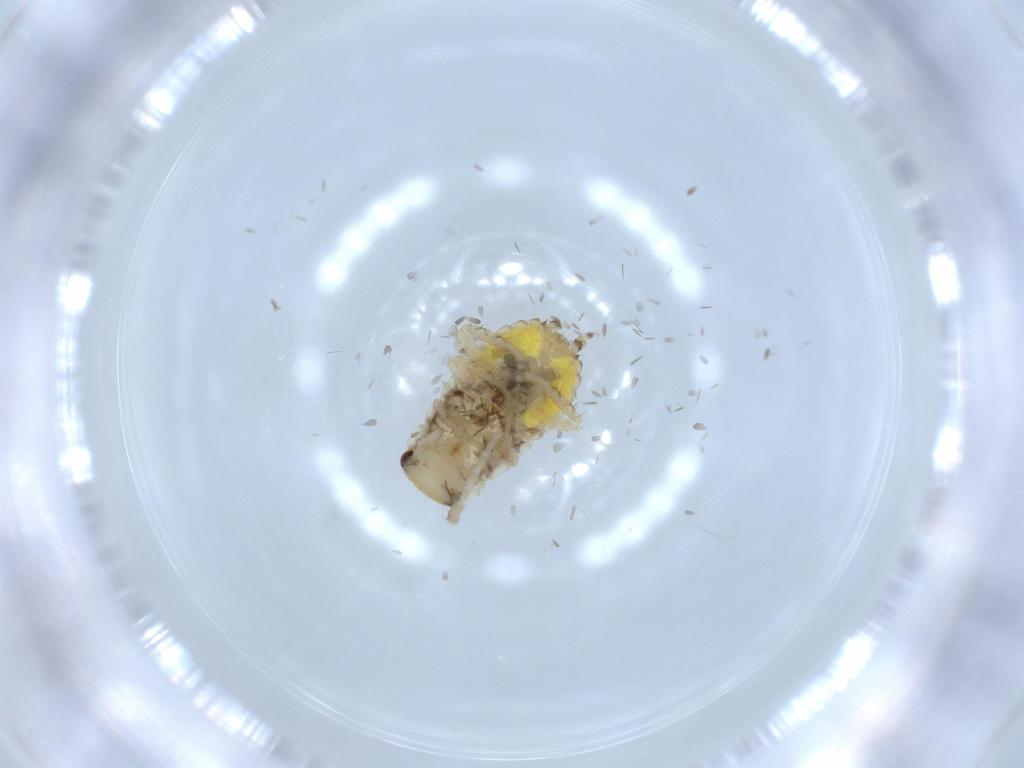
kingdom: Animalia
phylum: Arthropoda
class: Insecta
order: Blattodea
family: Ectobiidae
